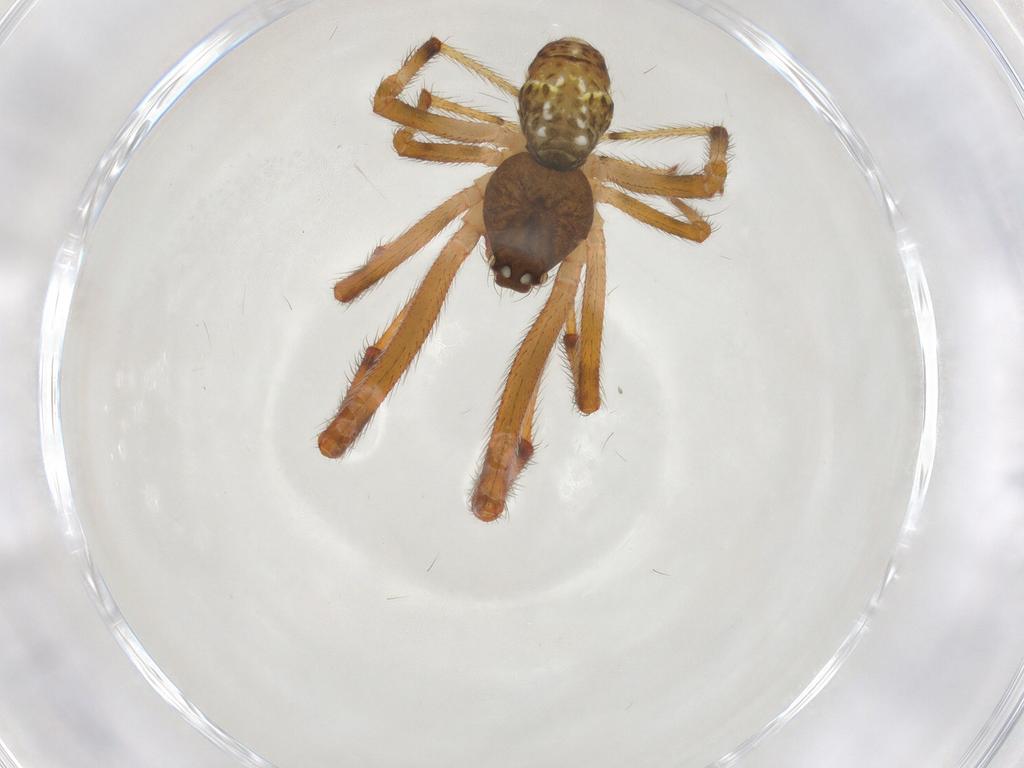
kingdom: Animalia
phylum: Arthropoda
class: Arachnida
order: Araneae
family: Theridiidae
